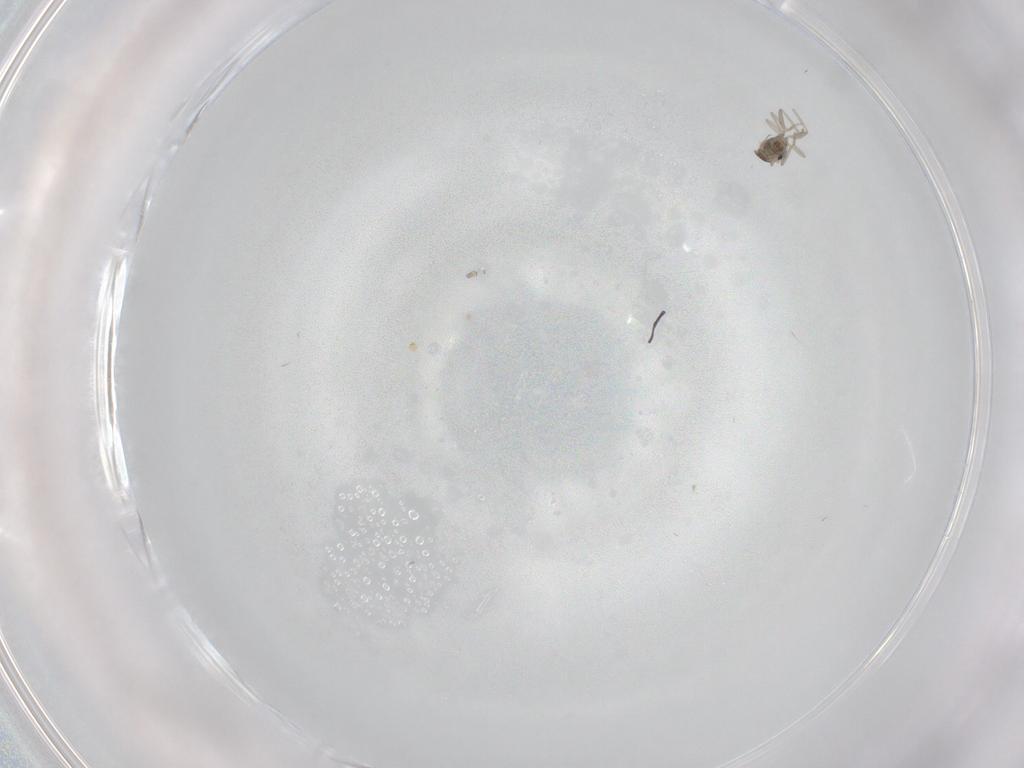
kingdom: Animalia
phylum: Arthropoda
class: Insecta
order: Diptera
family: Cecidomyiidae
